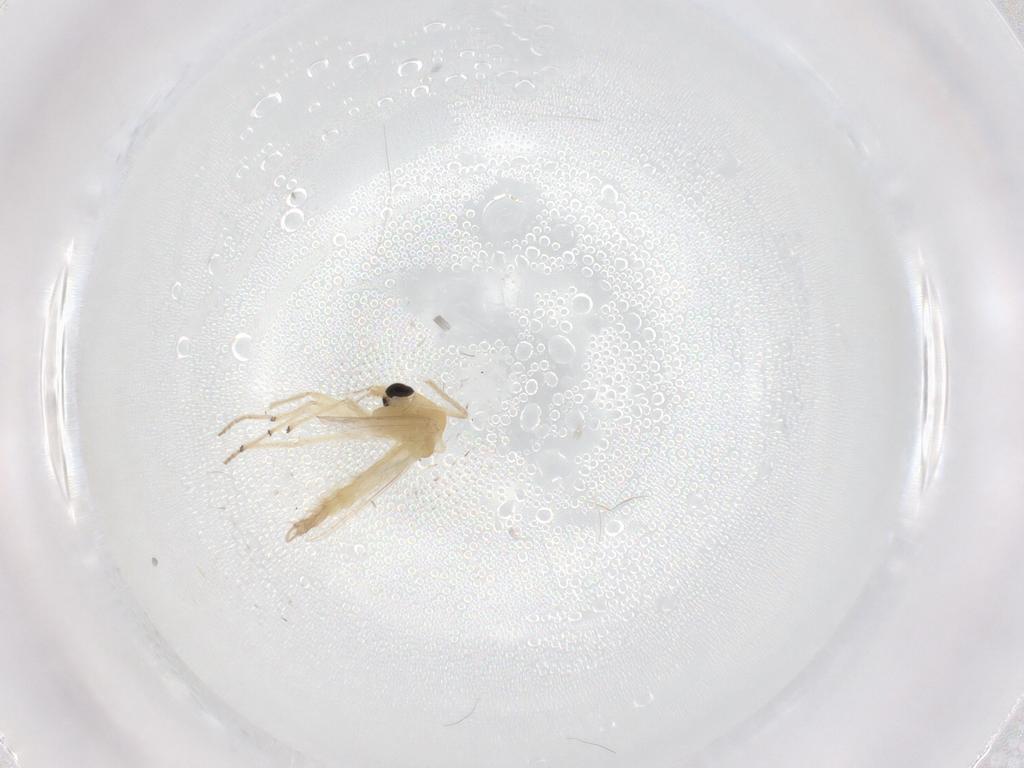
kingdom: Animalia
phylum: Arthropoda
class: Insecta
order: Diptera
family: Chironomidae
